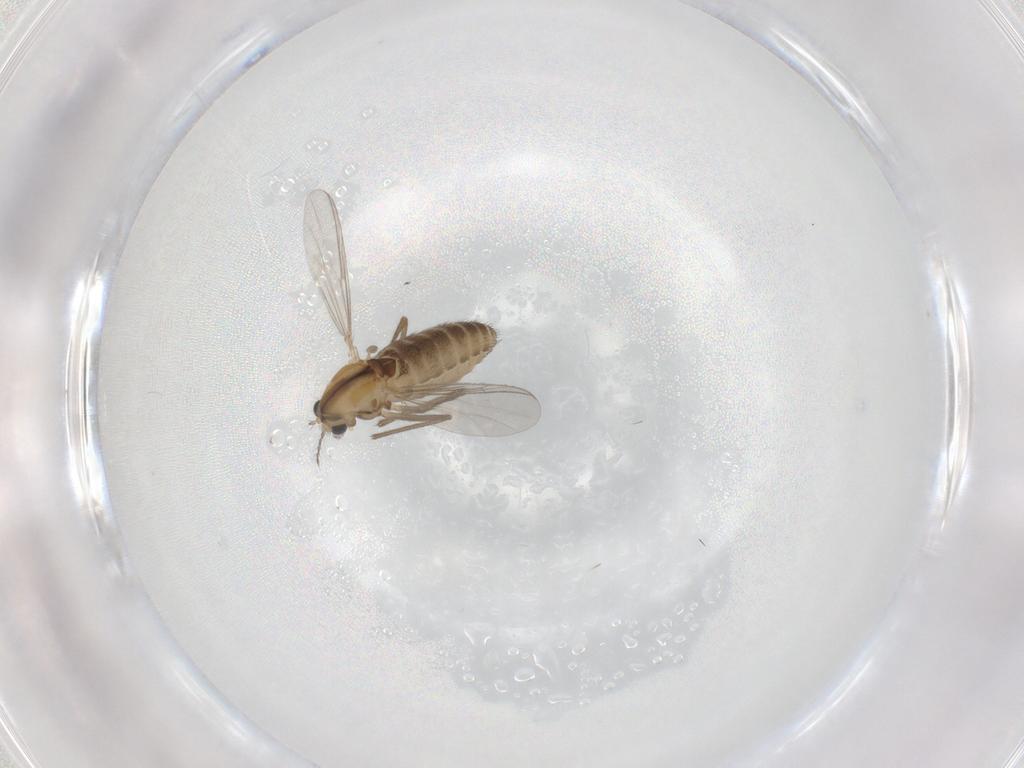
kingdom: Animalia
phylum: Arthropoda
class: Insecta
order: Diptera
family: Chironomidae
